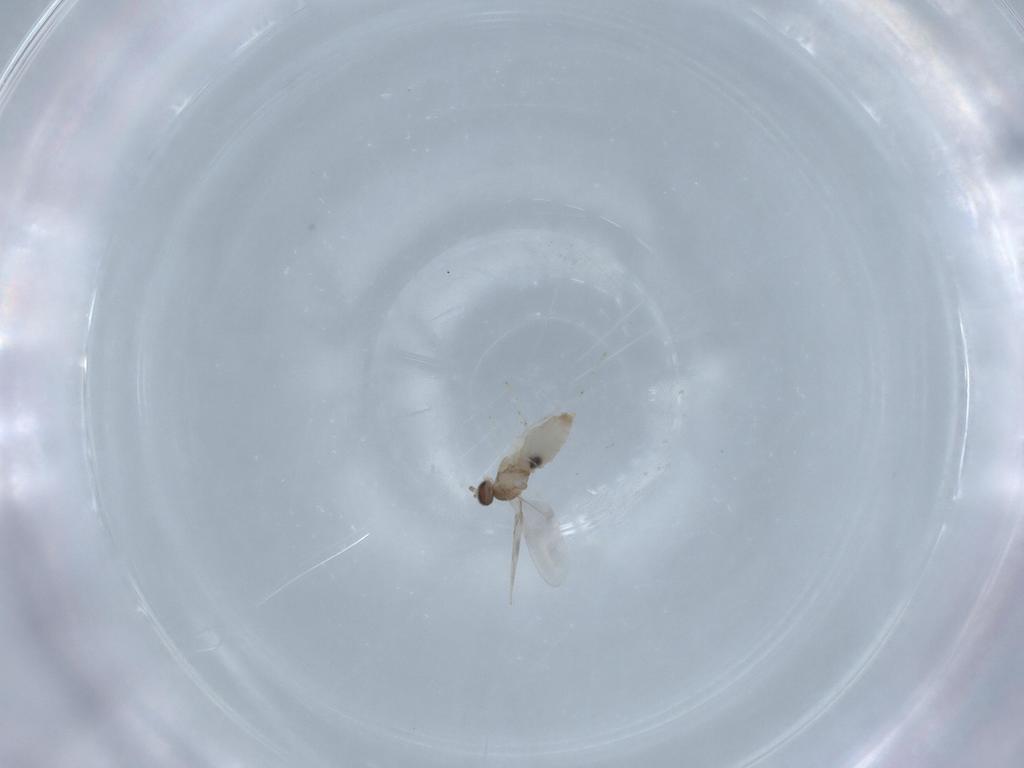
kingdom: Animalia
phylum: Arthropoda
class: Insecta
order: Diptera
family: Cecidomyiidae
